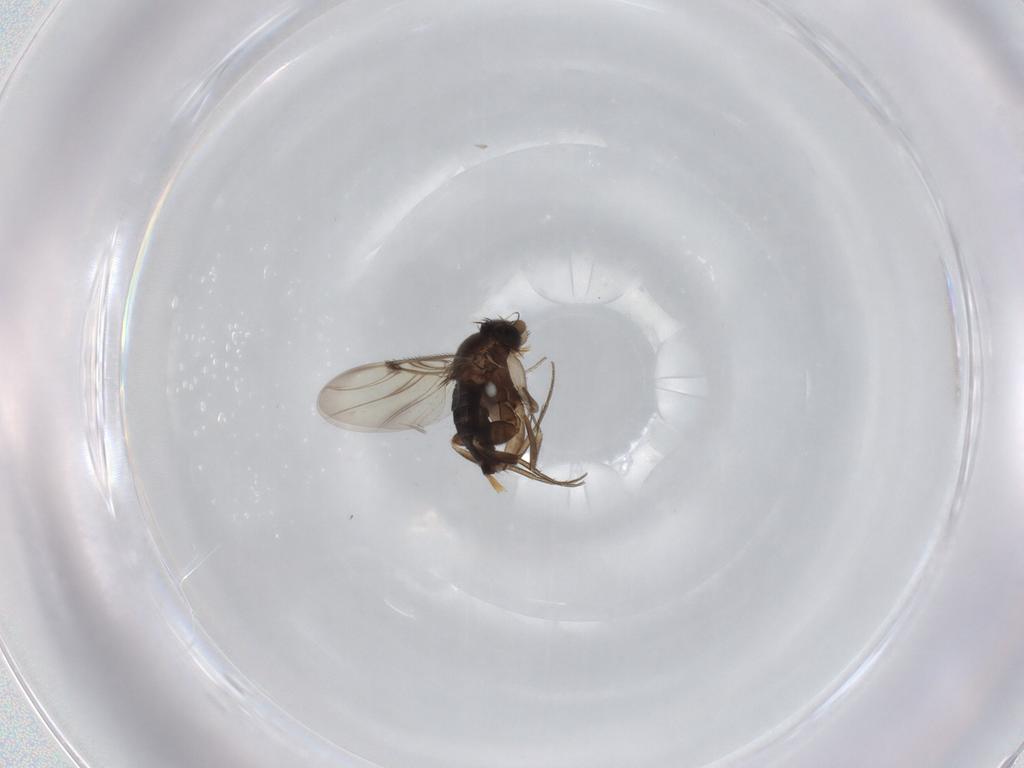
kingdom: Animalia
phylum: Arthropoda
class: Insecta
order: Diptera
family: Phoridae
